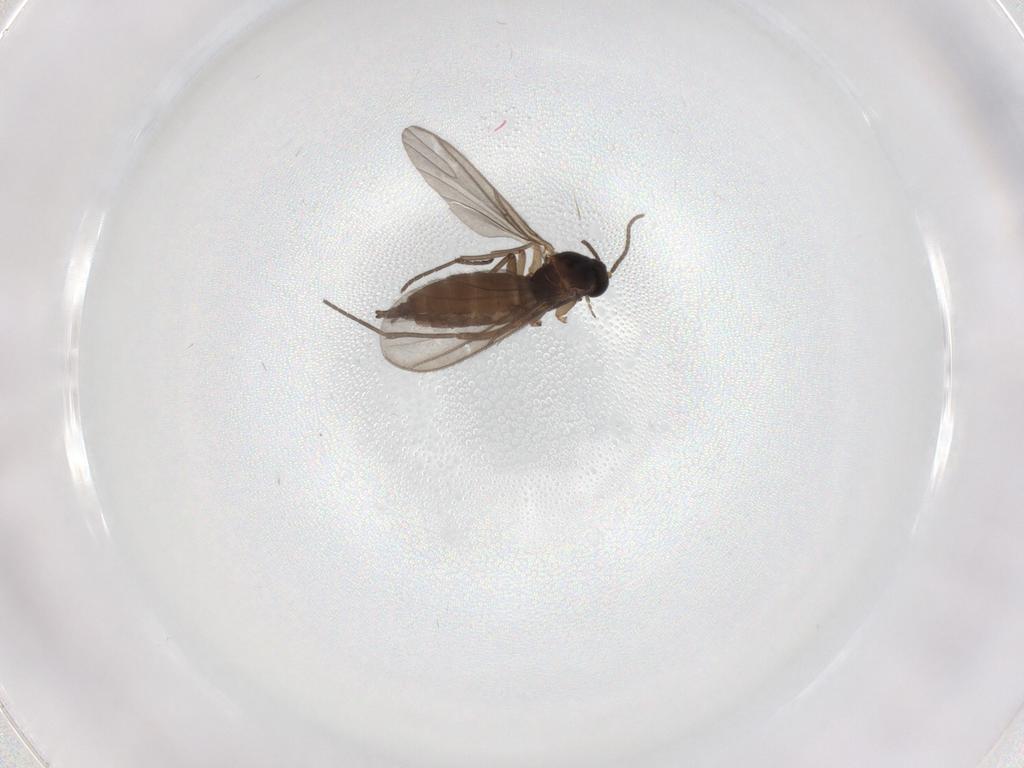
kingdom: Animalia
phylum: Arthropoda
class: Insecta
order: Diptera
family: Sciaridae
